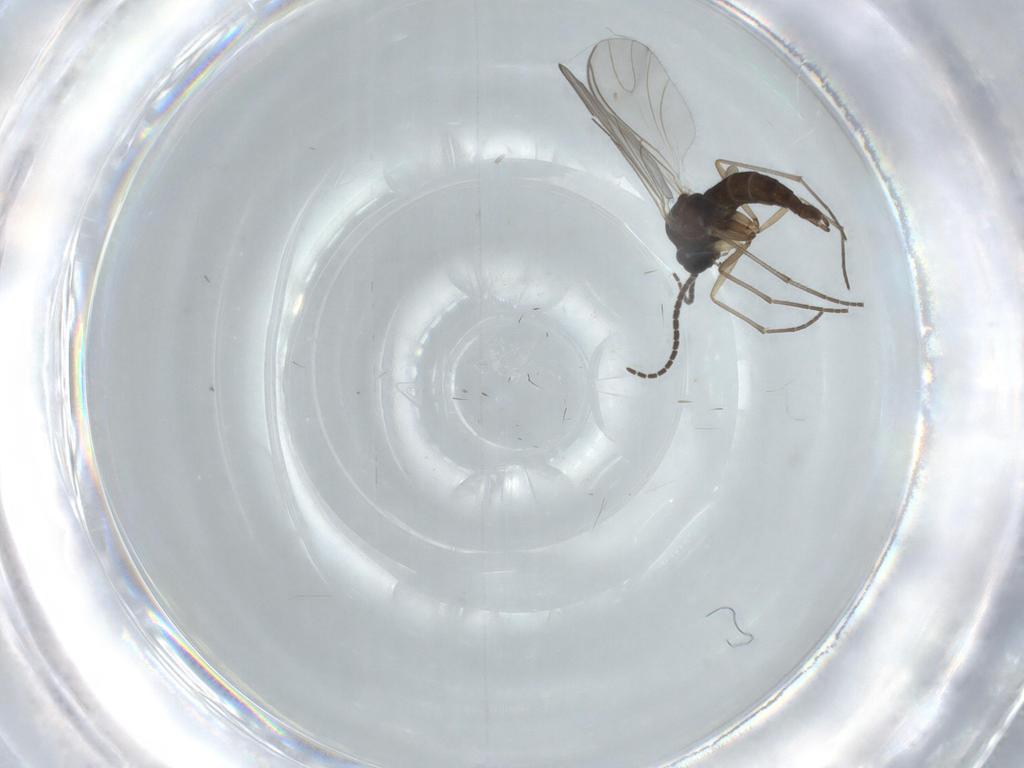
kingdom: Animalia
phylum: Arthropoda
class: Insecta
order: Diptera
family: Sciaridae
